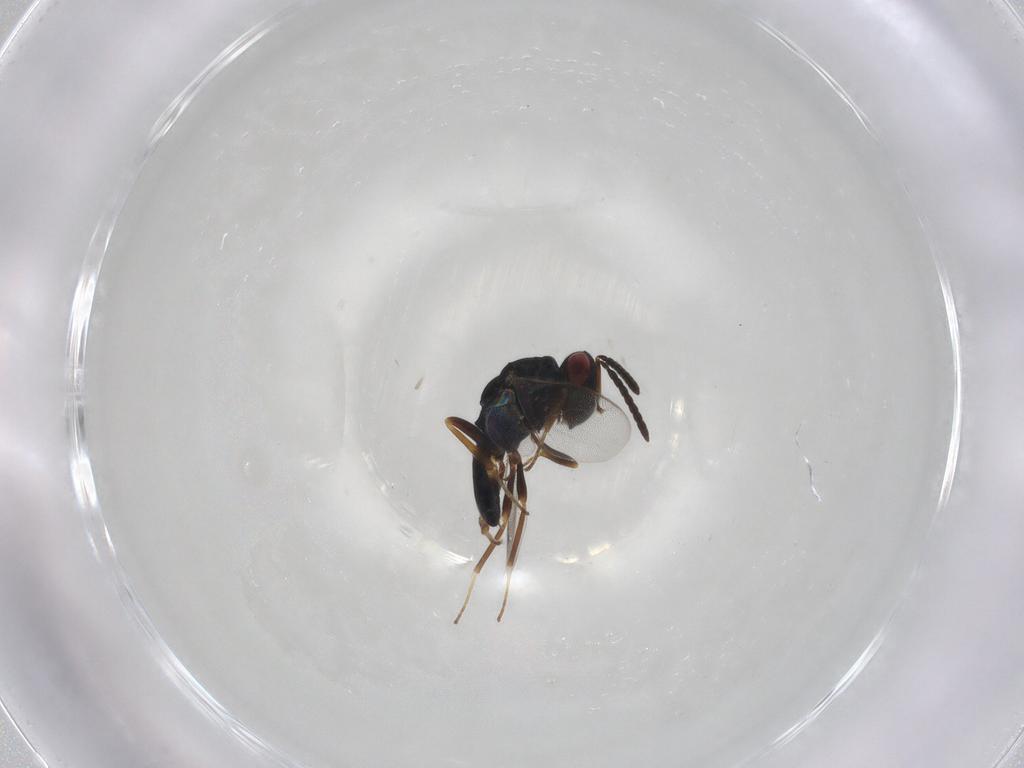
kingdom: Animalia
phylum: Arthropoda
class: Insecta
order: Hymenoptera
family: Pteromalidae
